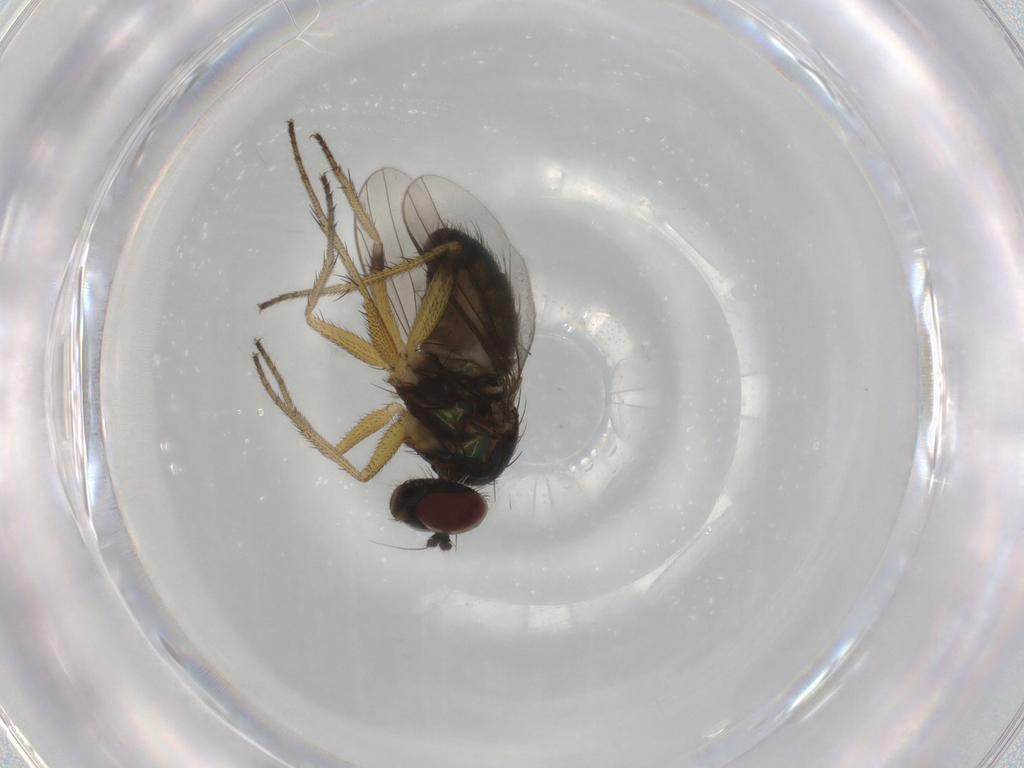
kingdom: Animalia
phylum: Arthropoda
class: Insecta
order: Diptera
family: Dolichopodidae
